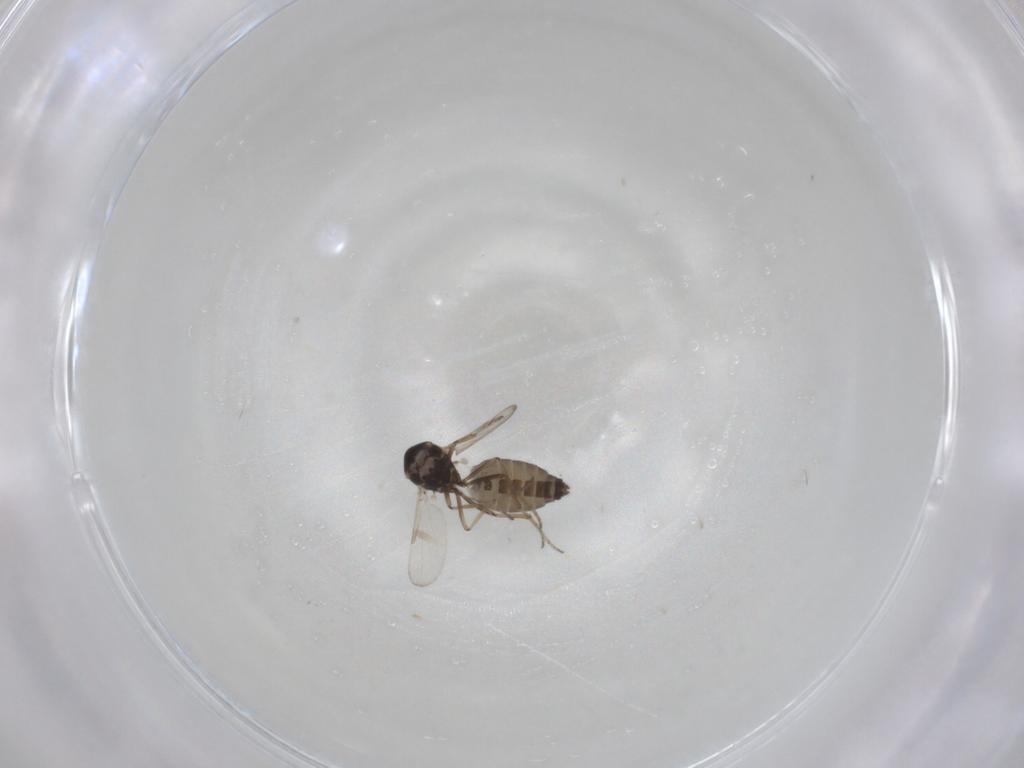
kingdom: Animalia
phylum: Arthropoda
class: Insecta
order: Diptera
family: Ceratopogonidae
